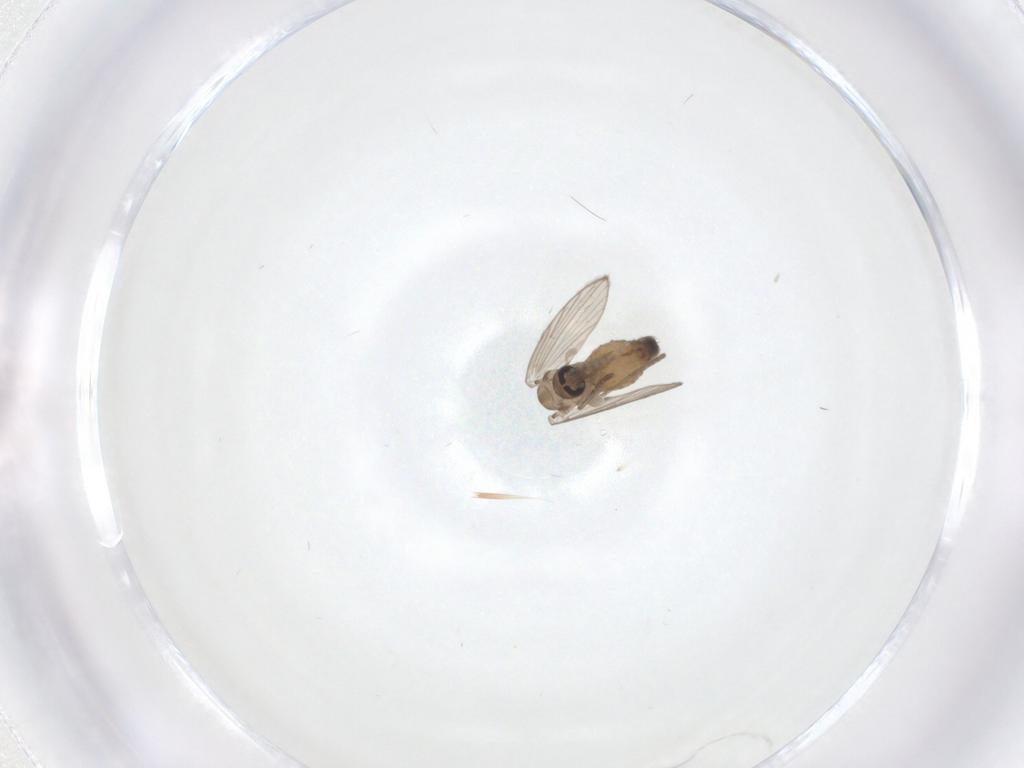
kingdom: Animalia
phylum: Arthropoda
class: Insecta
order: Diptera
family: Psychodidae
